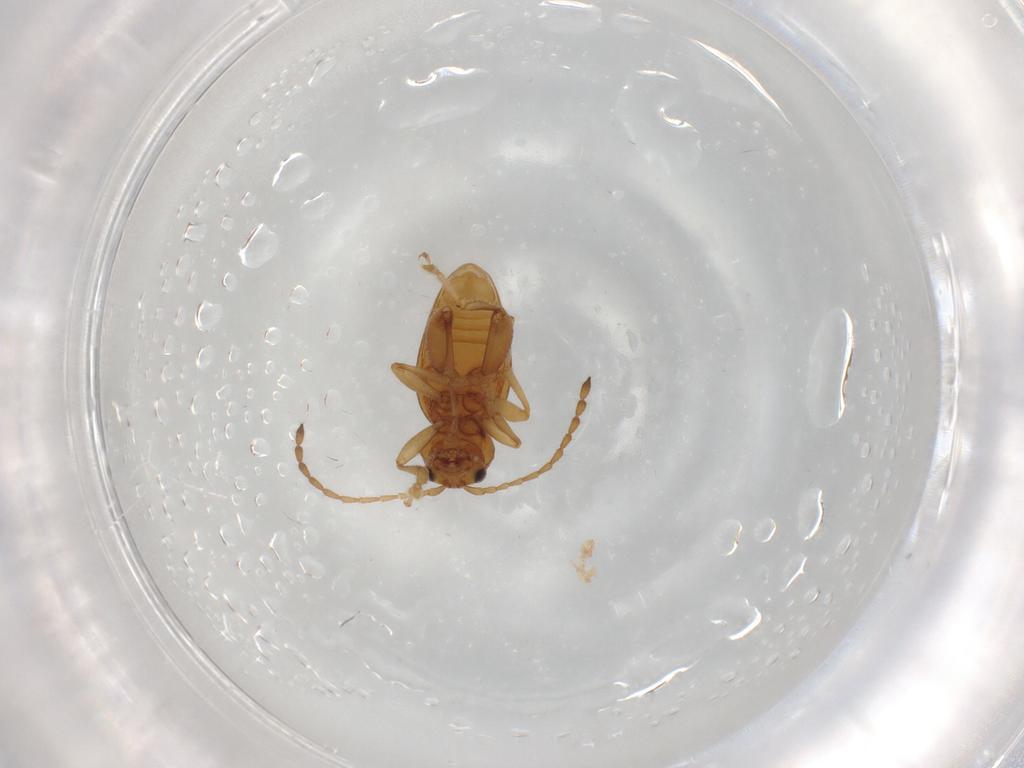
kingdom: Animalia
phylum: Arthropoda
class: Insecta
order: Coleoptera
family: Chrysomelidae
